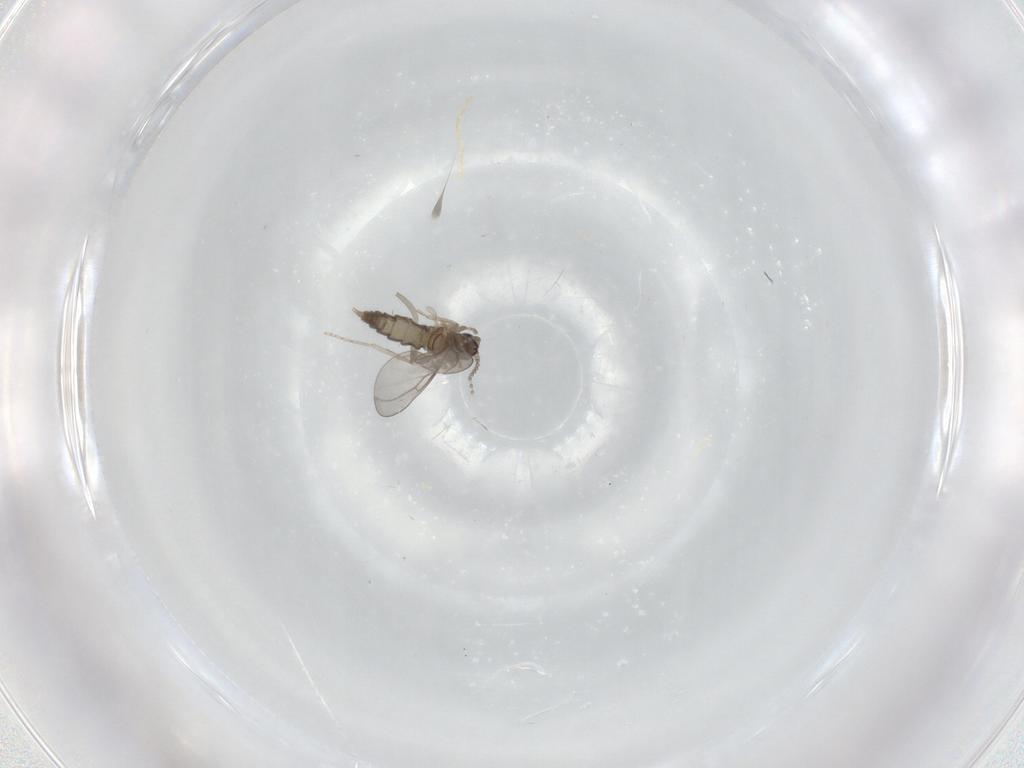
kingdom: Animalia
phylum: Arthropoda
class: Insecta
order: Diptera
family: Cecidomyiidae
